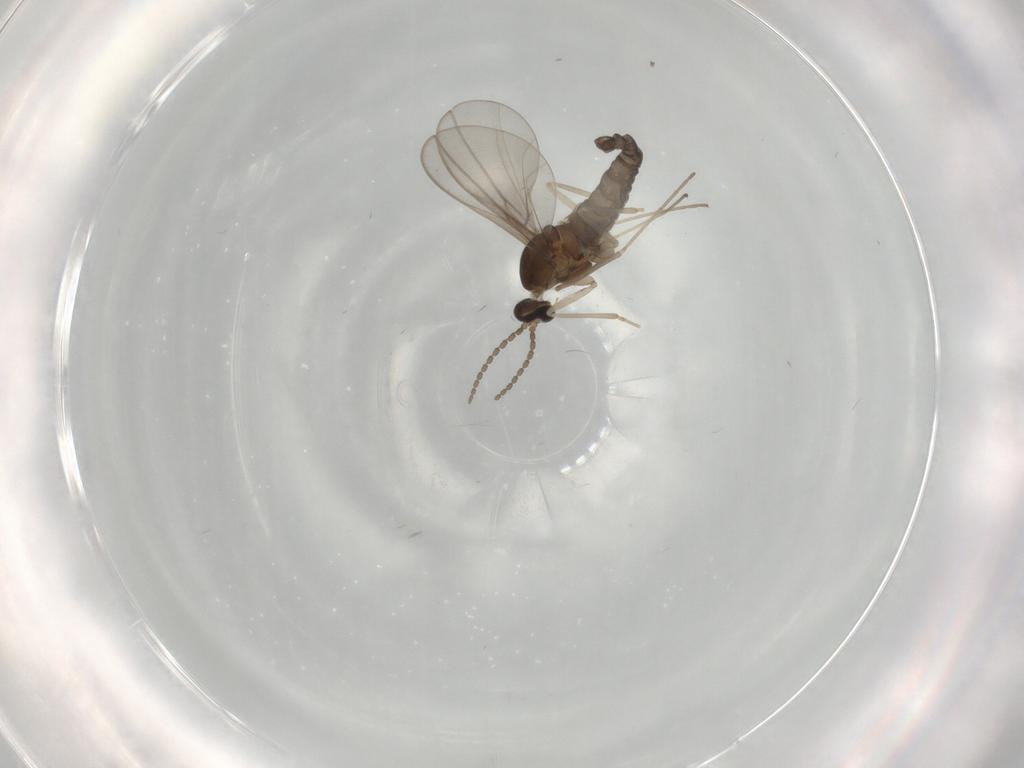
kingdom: Animalia
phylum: Arthropoda
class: Insecta
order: Diptera
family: Cecidomyiidae
